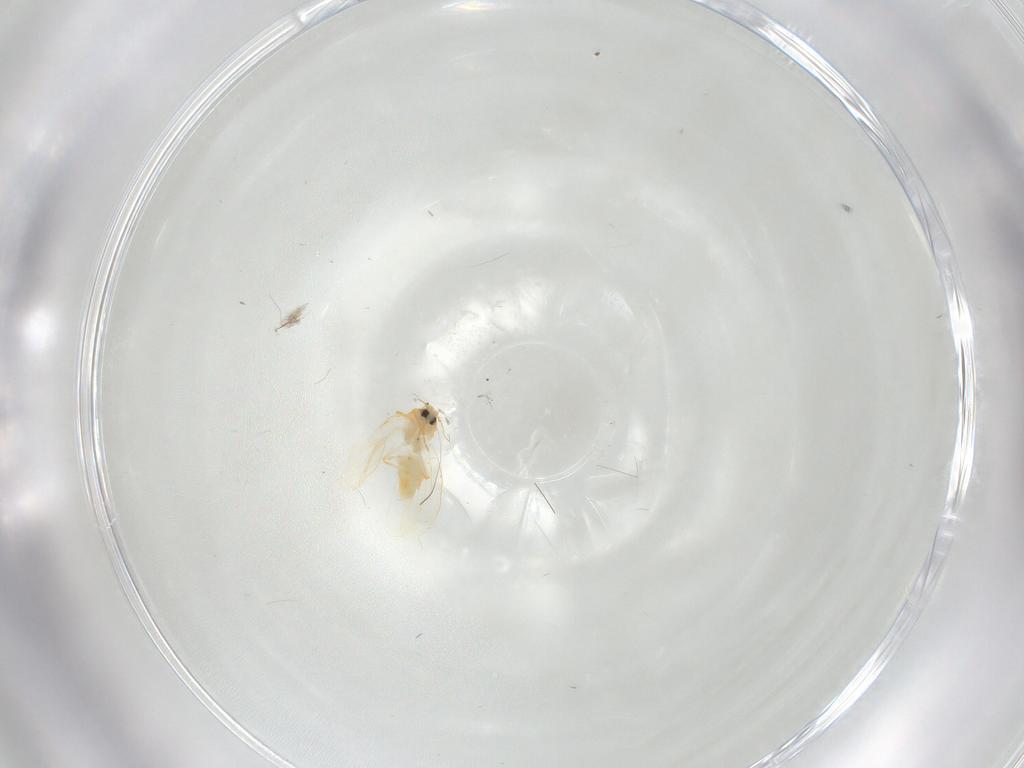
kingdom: Animalia
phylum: Arthropoda
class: Insecta
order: Hemiptera
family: Aleyrodidae
